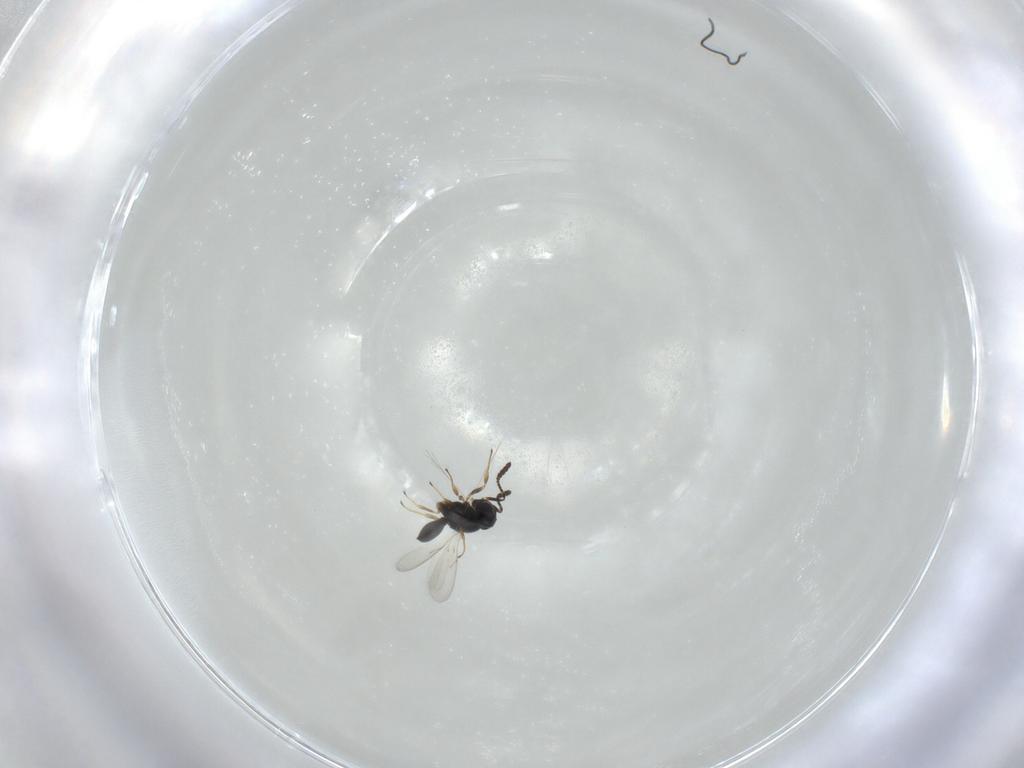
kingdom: Animalia
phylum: Arthropoda
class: Insecta
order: Hymenoptera
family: Scelionidae
